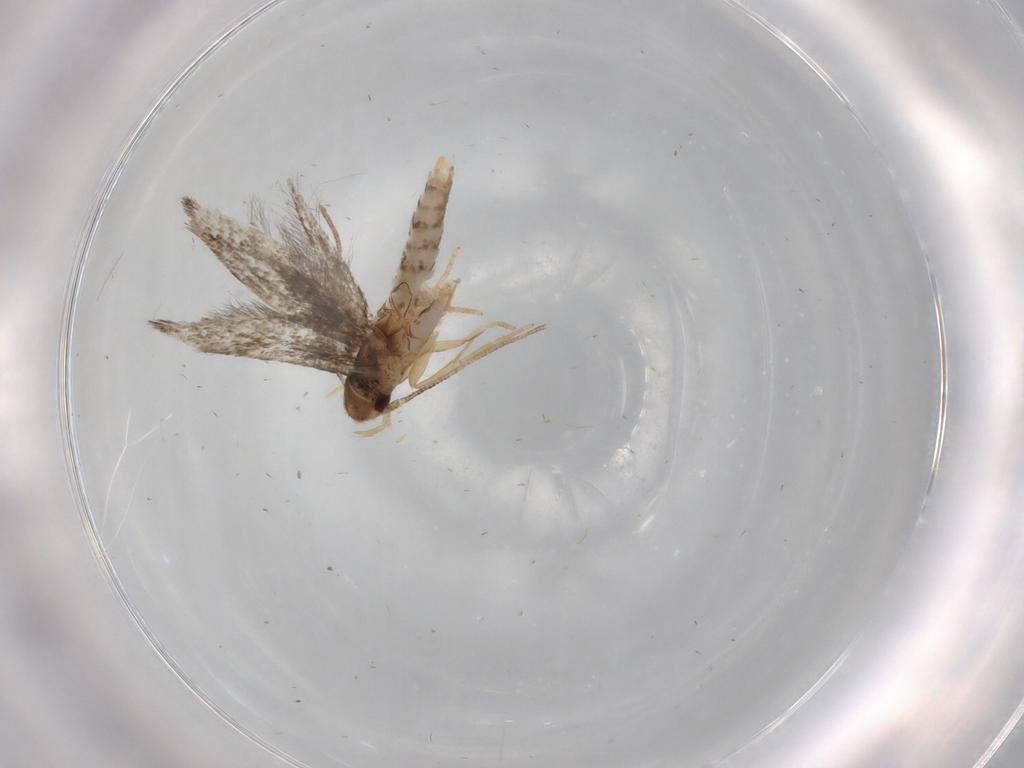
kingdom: Animalia
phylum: Arthropoda
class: Insecta
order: Lepidoptera
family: Gelechiidae
